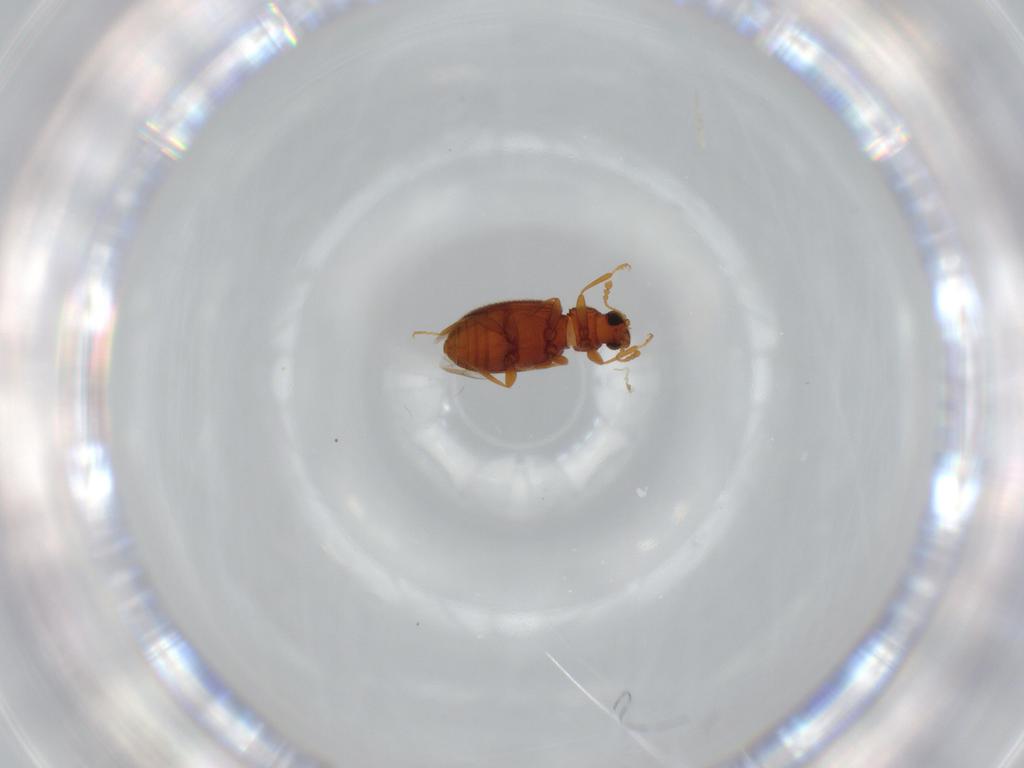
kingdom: Animalia
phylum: Arthropoda
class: Insecta
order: Coleoptera
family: Latridiidae
